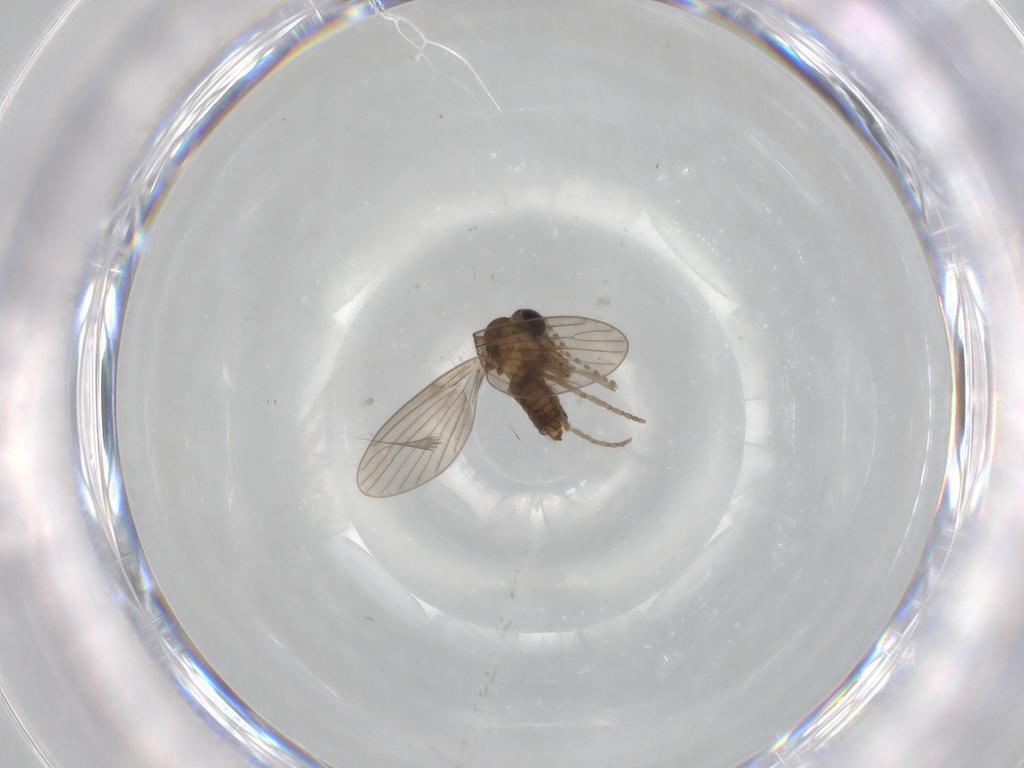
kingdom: Animalia
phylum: Arthropoda
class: Insecta
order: Diptera
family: Psychodidae
